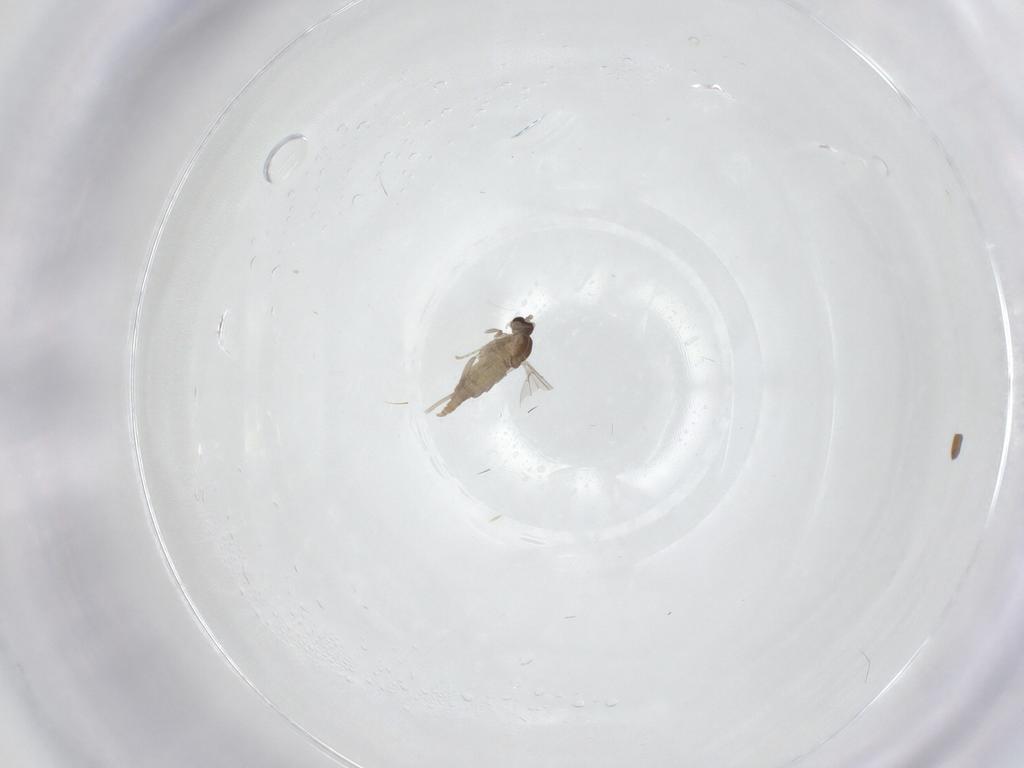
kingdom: Animalia
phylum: Arthropoda
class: Insecta
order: Diptera
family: Cecidomyiidae
